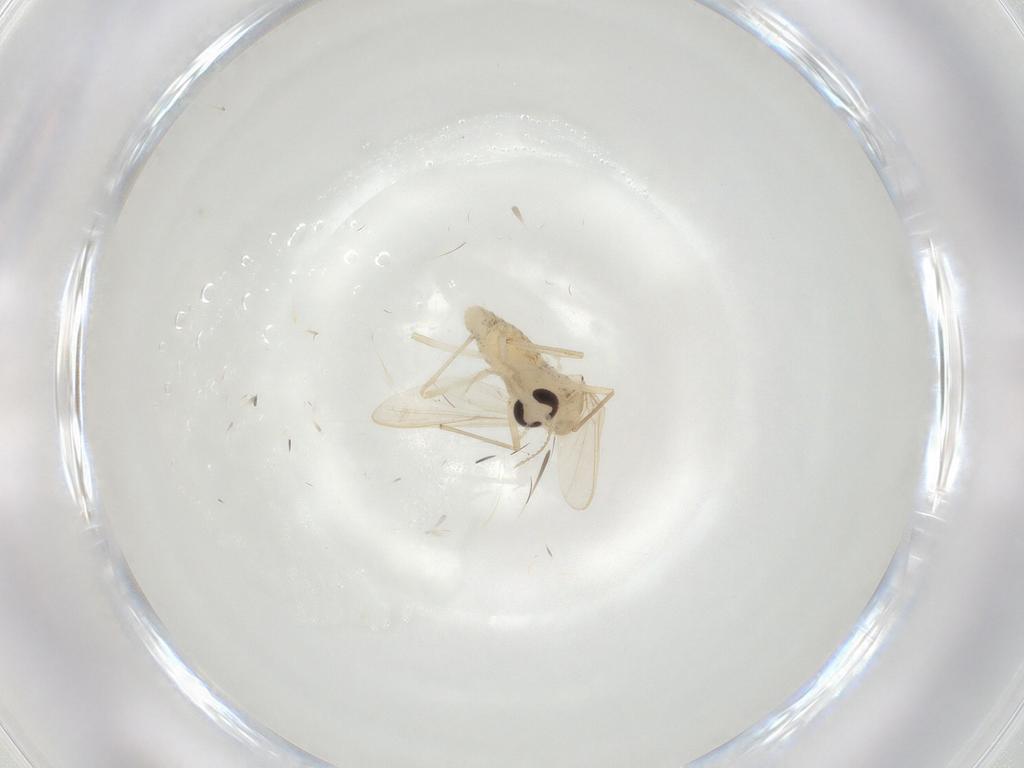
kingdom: Animalia
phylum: Arthropoda
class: Insecta
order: Diptera
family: Chironomidae
